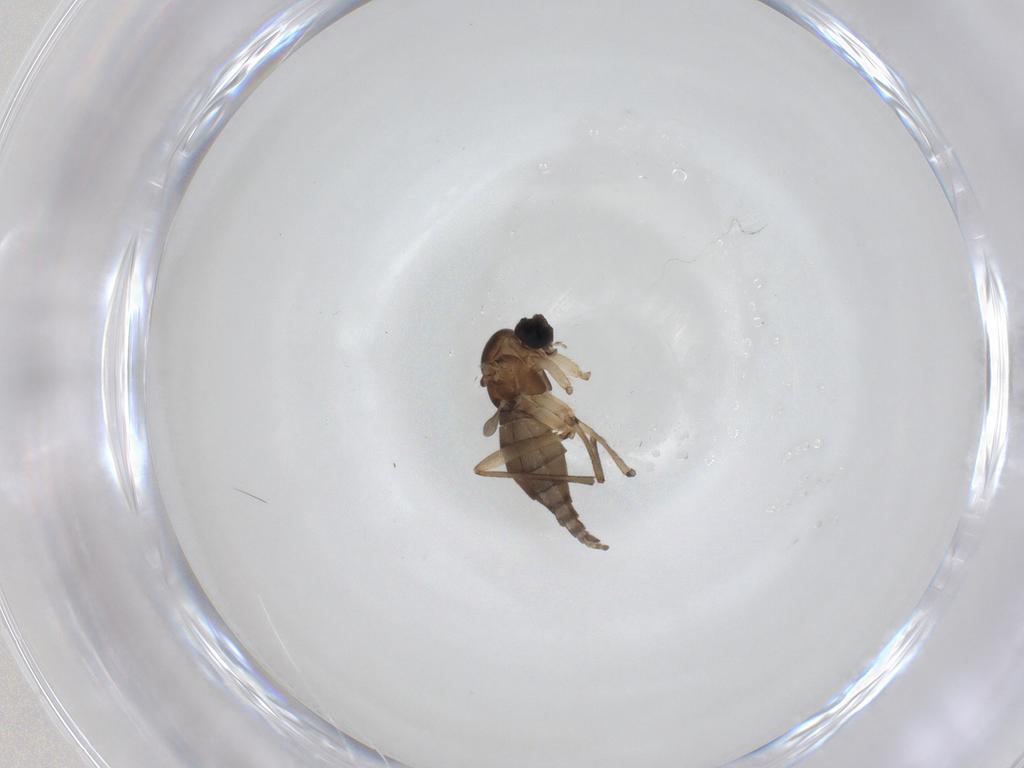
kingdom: Animalia
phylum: Arthropoda
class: Insecta
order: Diptera
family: Sciaridae
